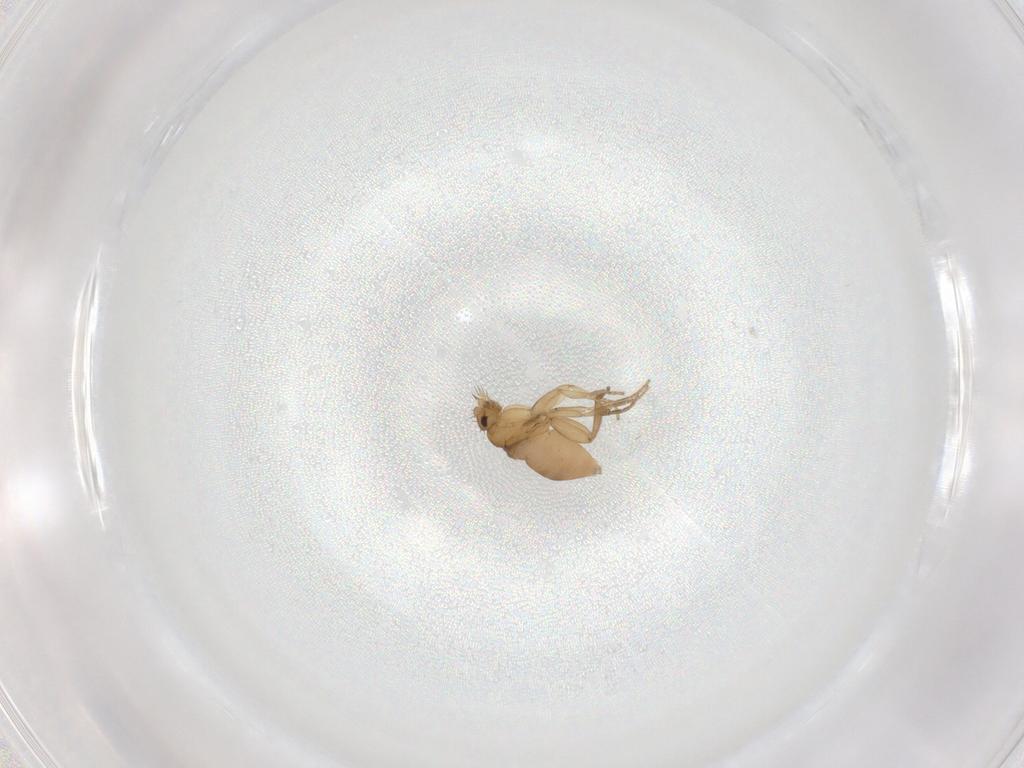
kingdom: Animalia
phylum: Arthropoda
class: Insecta
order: Diptera
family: Phoridae
